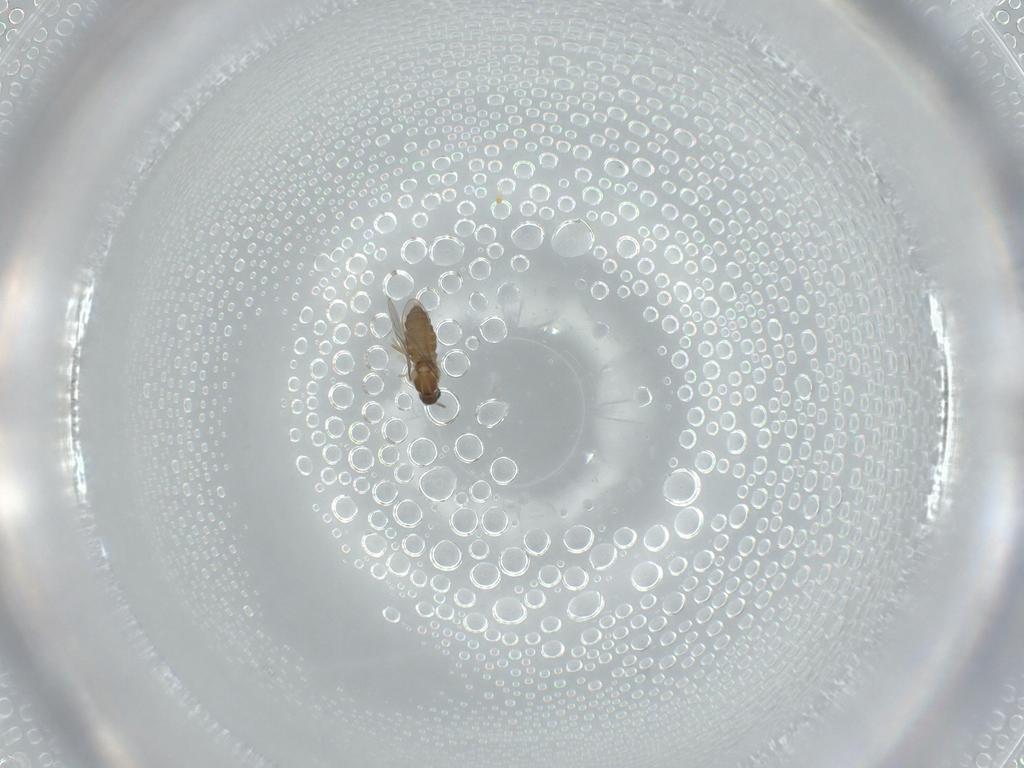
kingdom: Animalia
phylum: Arthropoda
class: Insecta
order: Diptera
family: Cecidomyiidae
